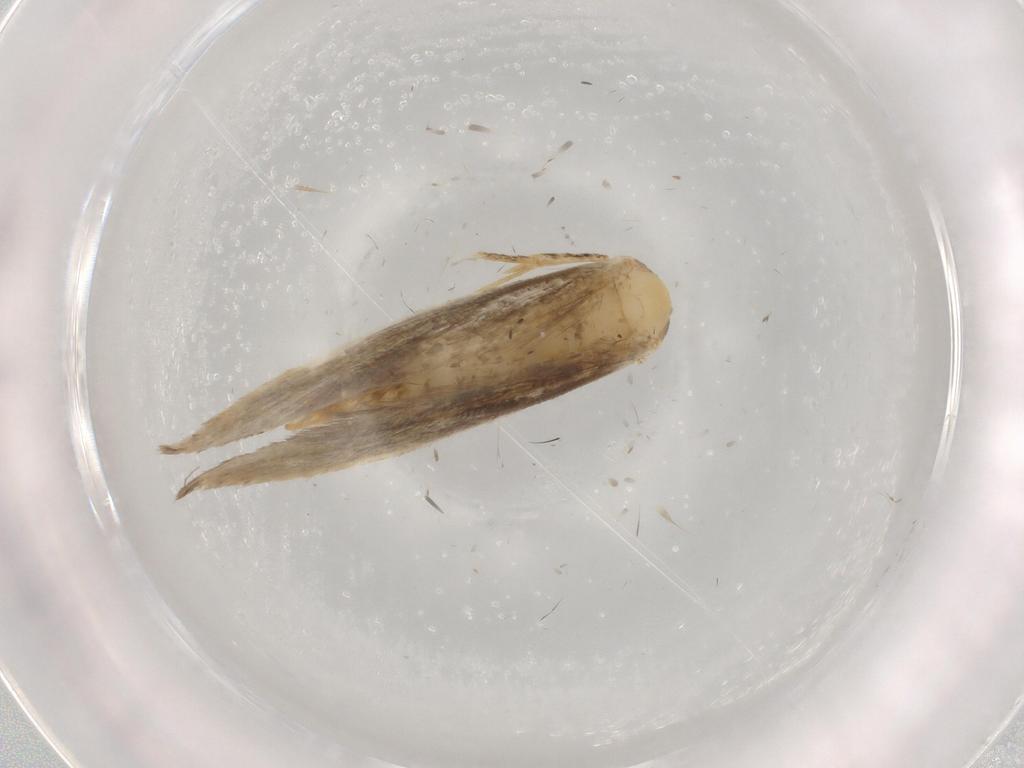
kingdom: Animalia
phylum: Arthropoda
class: Insecta
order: Lepidoptera
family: Tineidae
